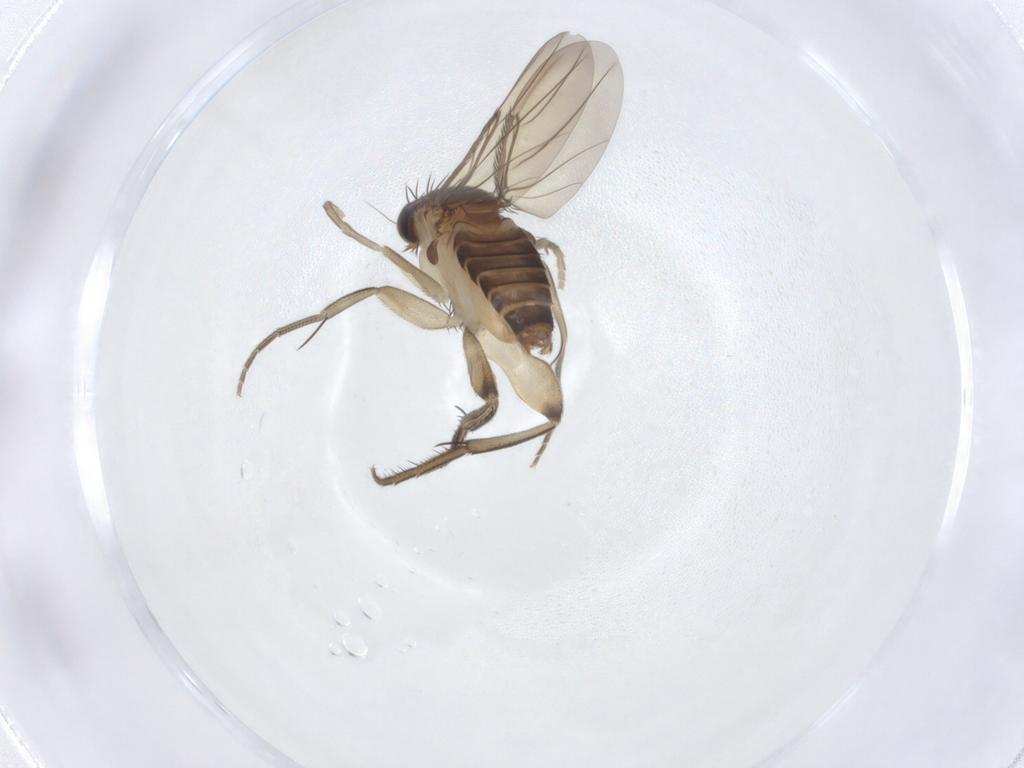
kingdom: Animalia
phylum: Arthropoda
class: Insecta
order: Diptera
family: Phoridae
